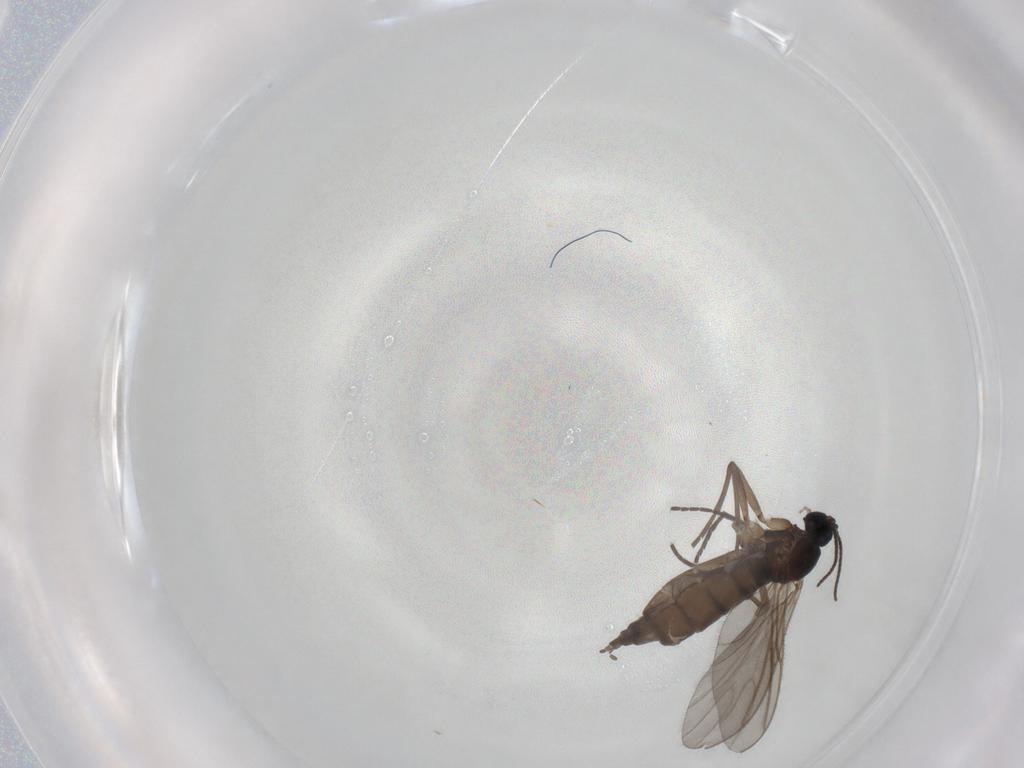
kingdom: Animalia
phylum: Arthropoda
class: Insecta
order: Diptera
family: Sciaridae
